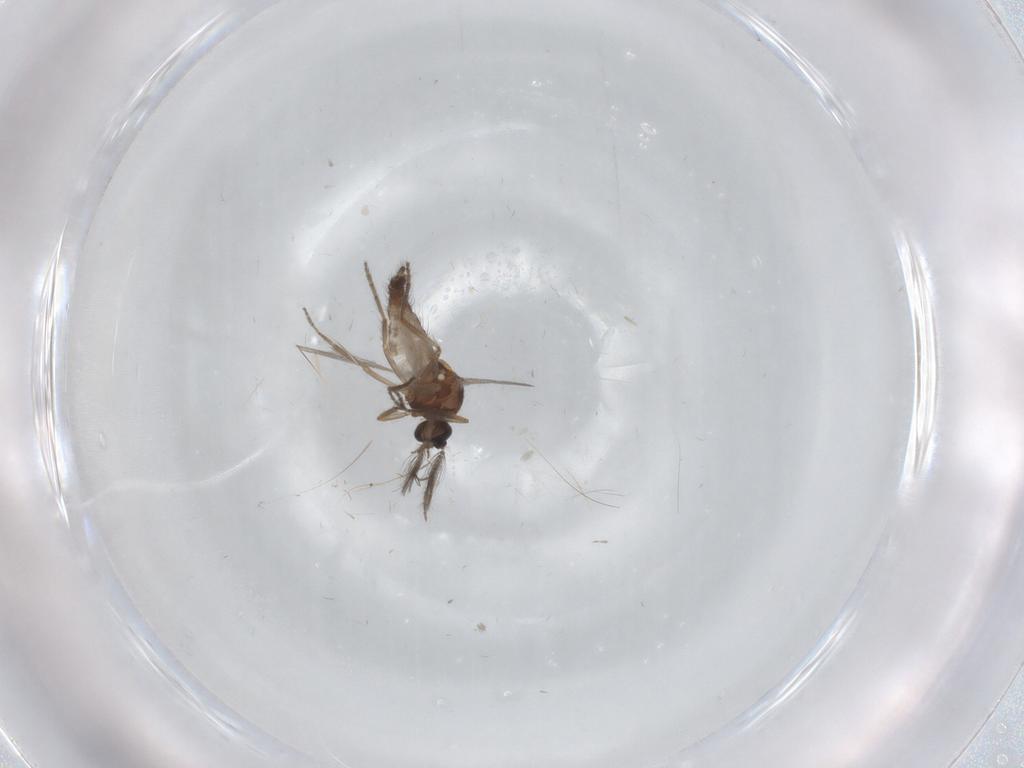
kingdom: Animalia
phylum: Arthropoda
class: Insecta
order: Diptera
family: Ceratopogonidae
